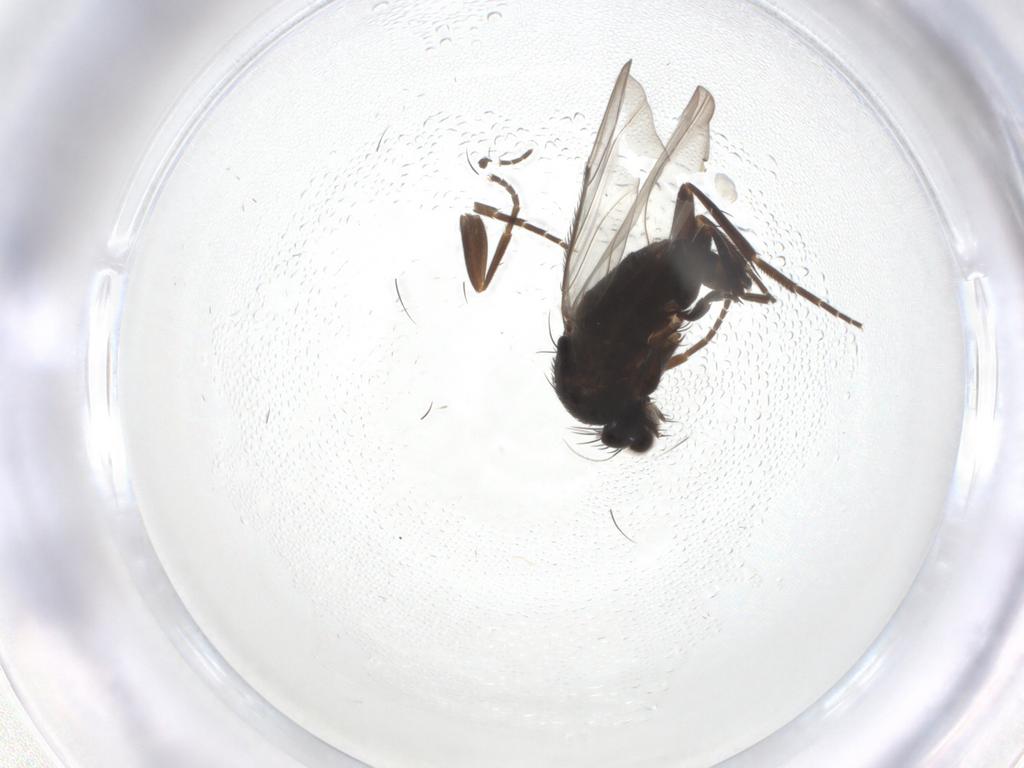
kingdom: Animalia
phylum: Arthropoda
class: Insecta
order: Diptera
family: Phoridae
